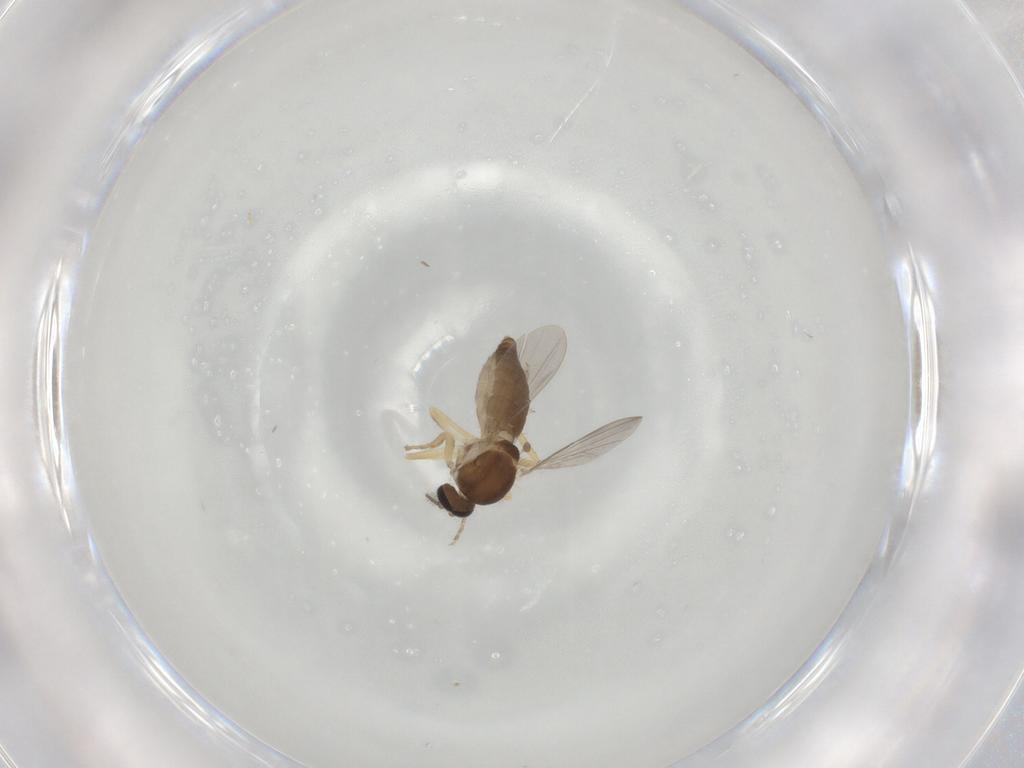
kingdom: Animalia
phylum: Arthropoda
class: Insecta
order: Diptera
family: Ceratopogonidae
